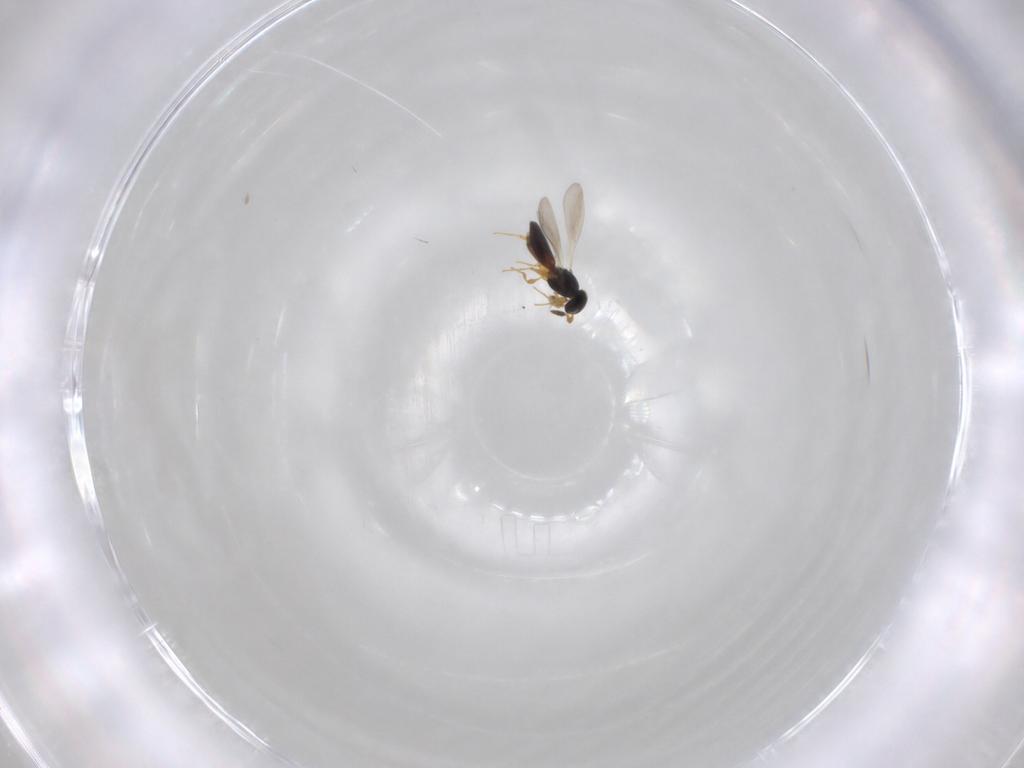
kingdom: Animalia
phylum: Arthropoda
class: Insecta
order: Hymenoptera
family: Platygastridae
